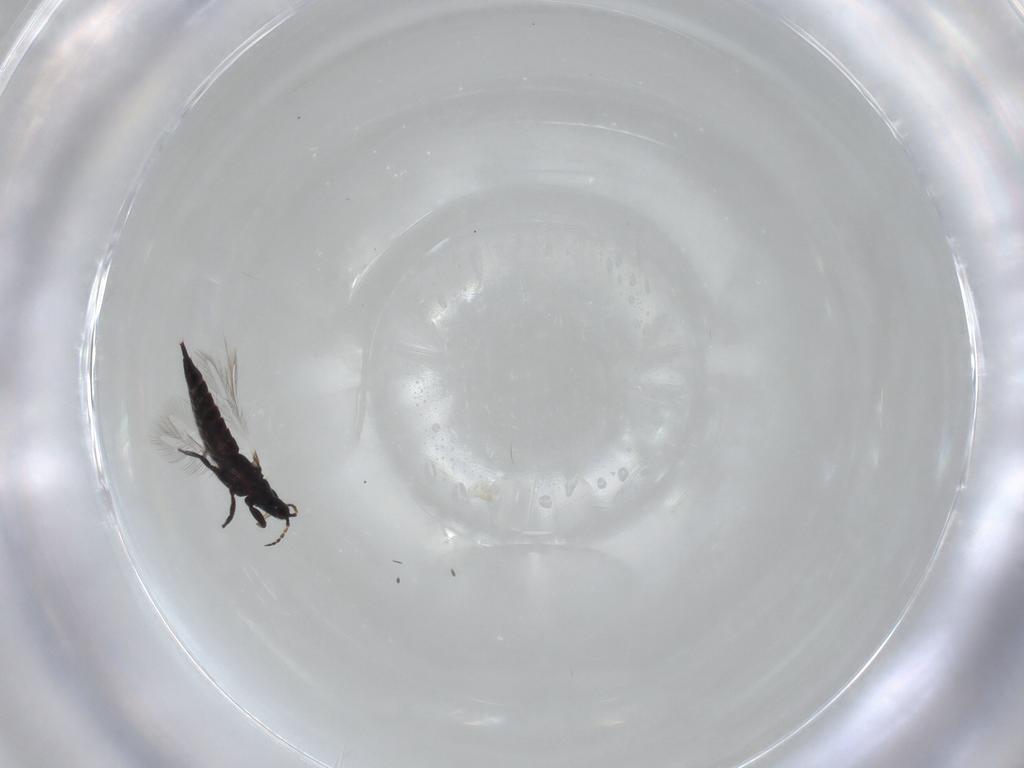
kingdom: Animalia
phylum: Arthropoda
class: Insecta
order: Thysanoptera
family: Phlaeothripidae
